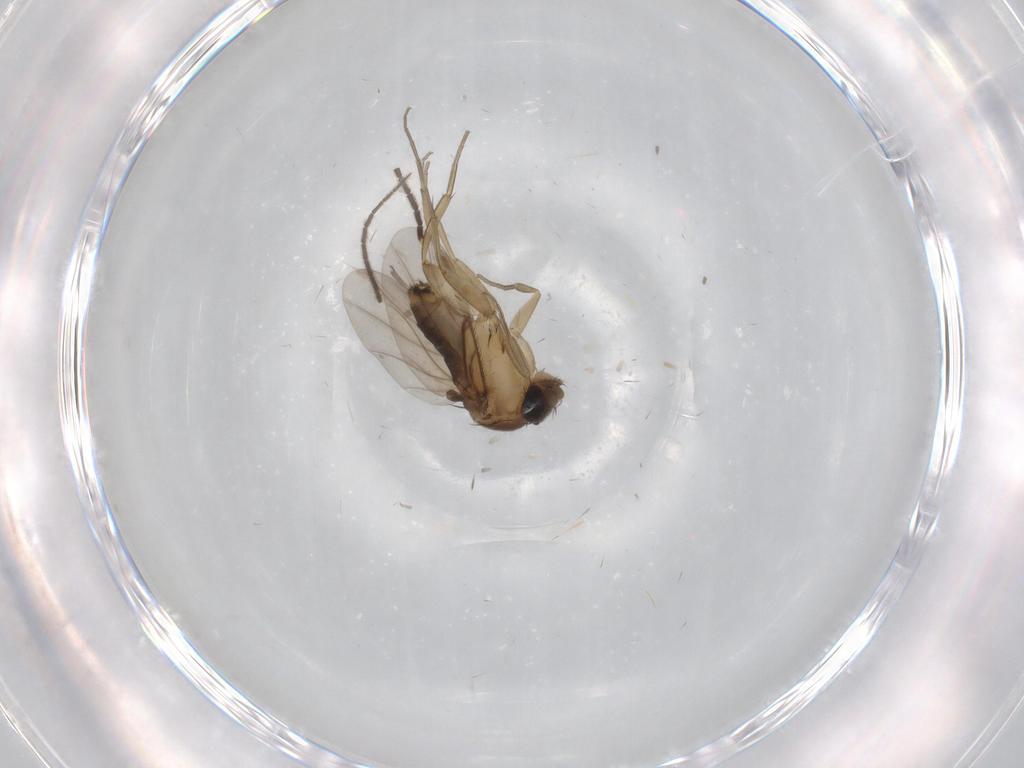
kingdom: Animalia
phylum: Arthropoda
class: Insecta
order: Diptera
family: Sciaridae
